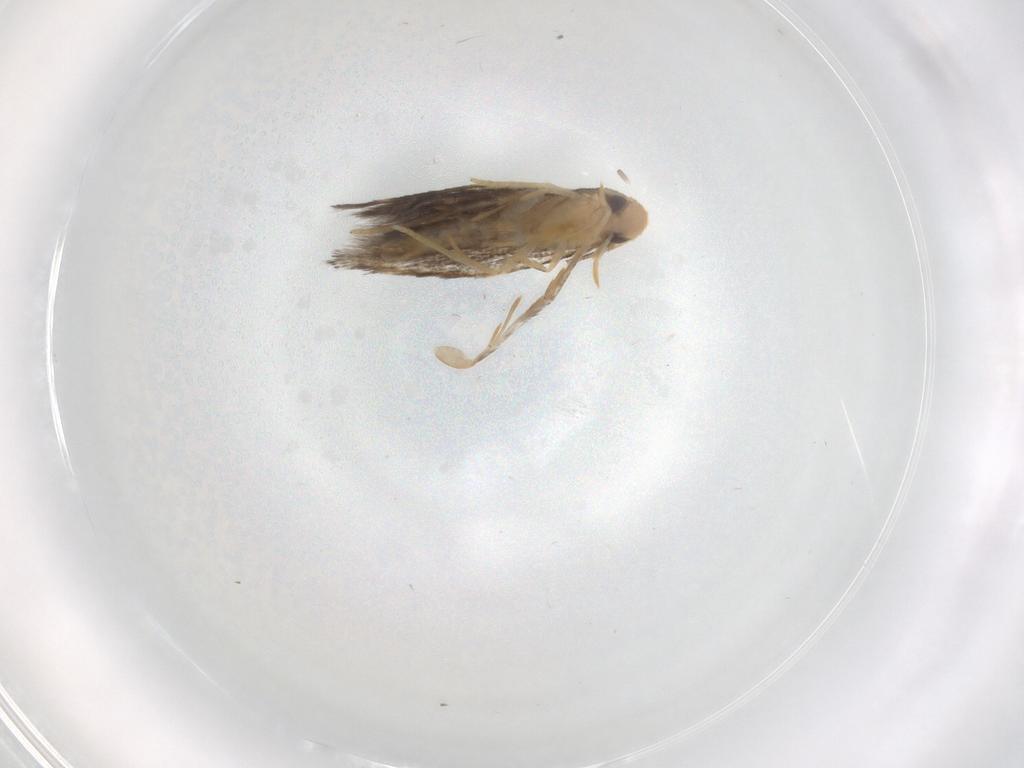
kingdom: Animalia
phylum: Arthropoda
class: Insecta
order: Lepidoptera
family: Gelechiidae
